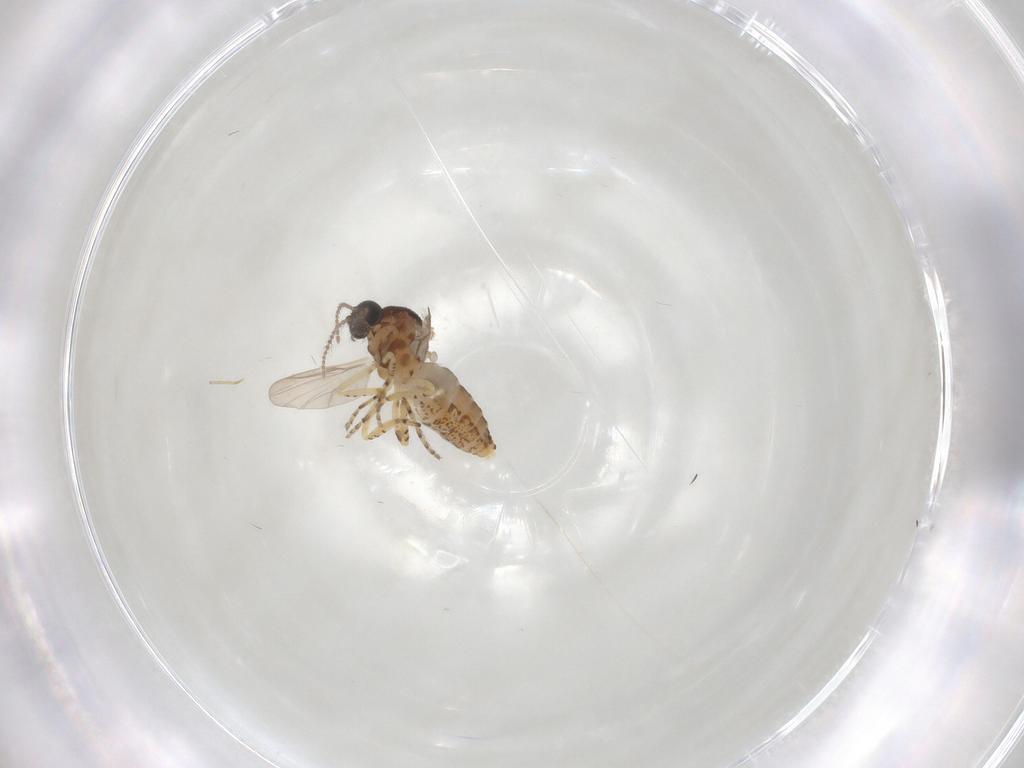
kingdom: Animalia
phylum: Arthropoda
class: Insecta
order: Diptera
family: Ceratopogonidae
